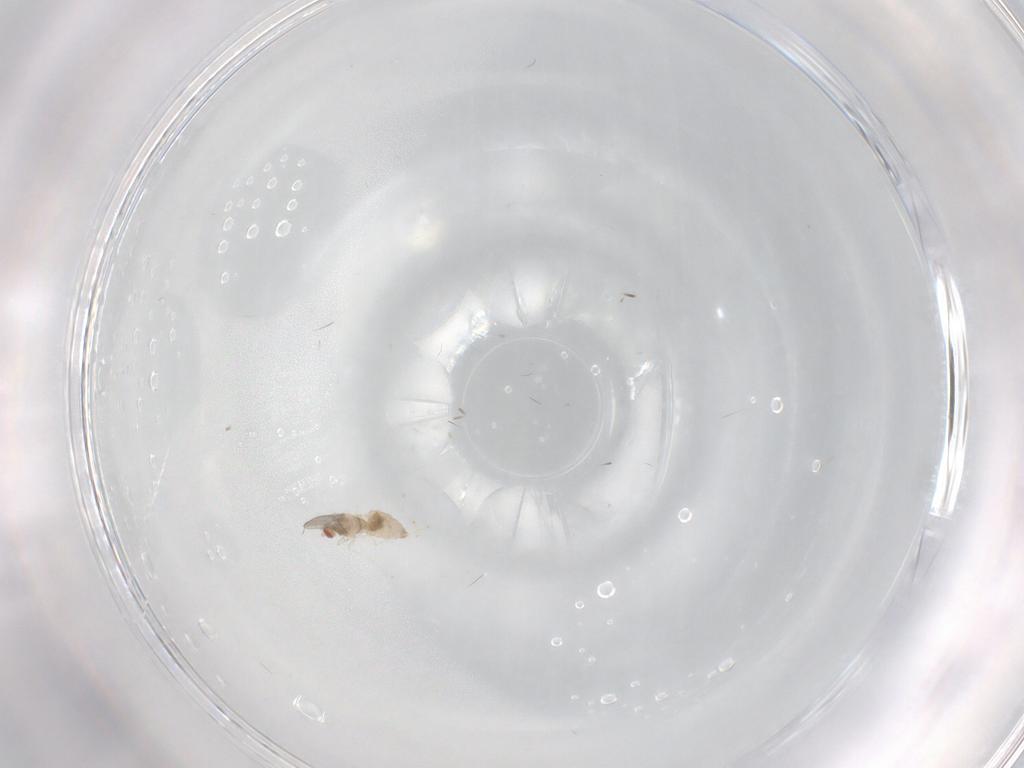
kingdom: Animalia
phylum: Arthropoda
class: Insecta
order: Diptera
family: Cecidomyiidae
